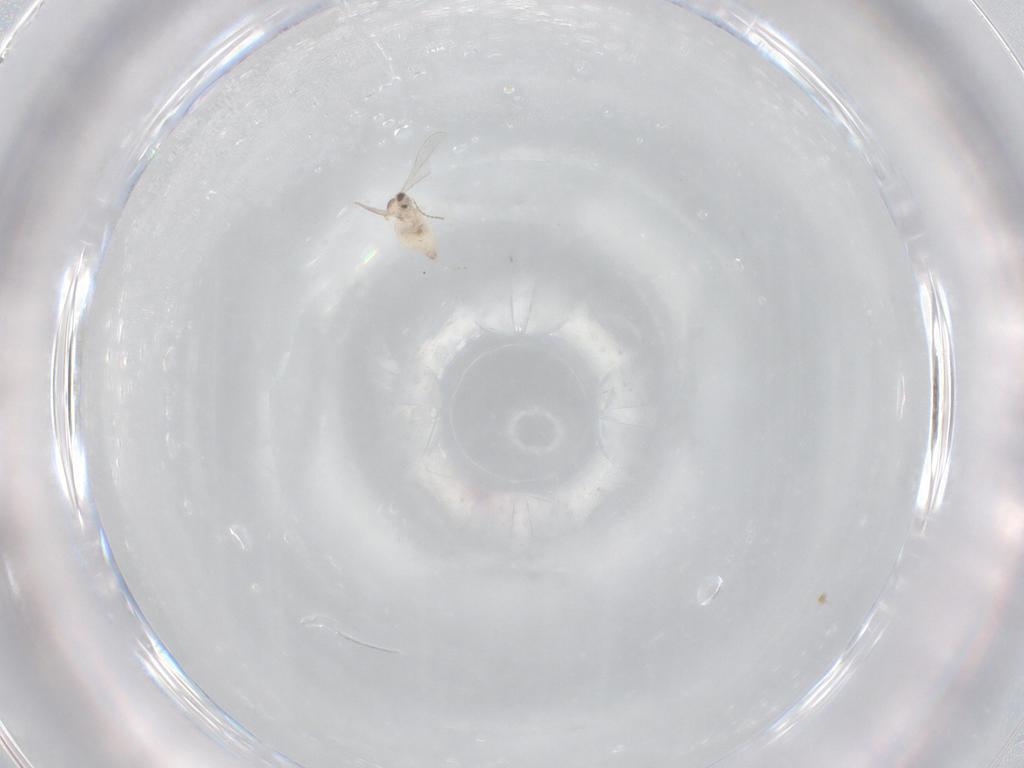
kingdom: Animalia
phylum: Arthropoda
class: Insecta
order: Diptera
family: Cecidomyiidae
